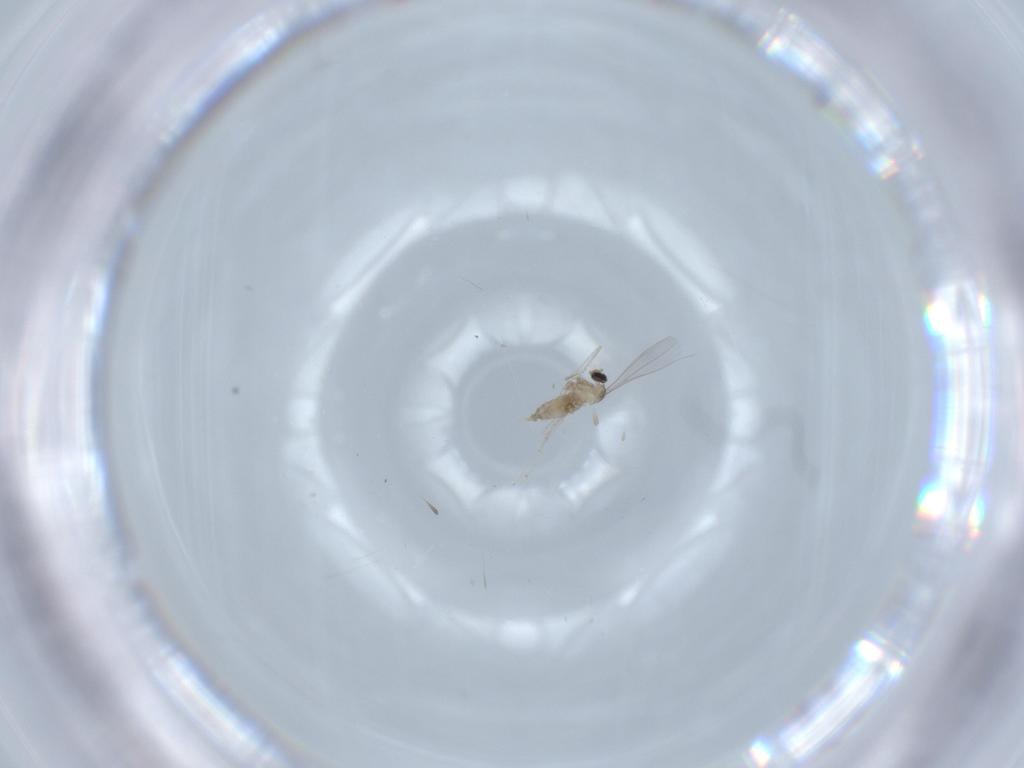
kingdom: Animalia
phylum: Arthropoda
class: Insecta
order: Diptera
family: Cecidomyiidae
